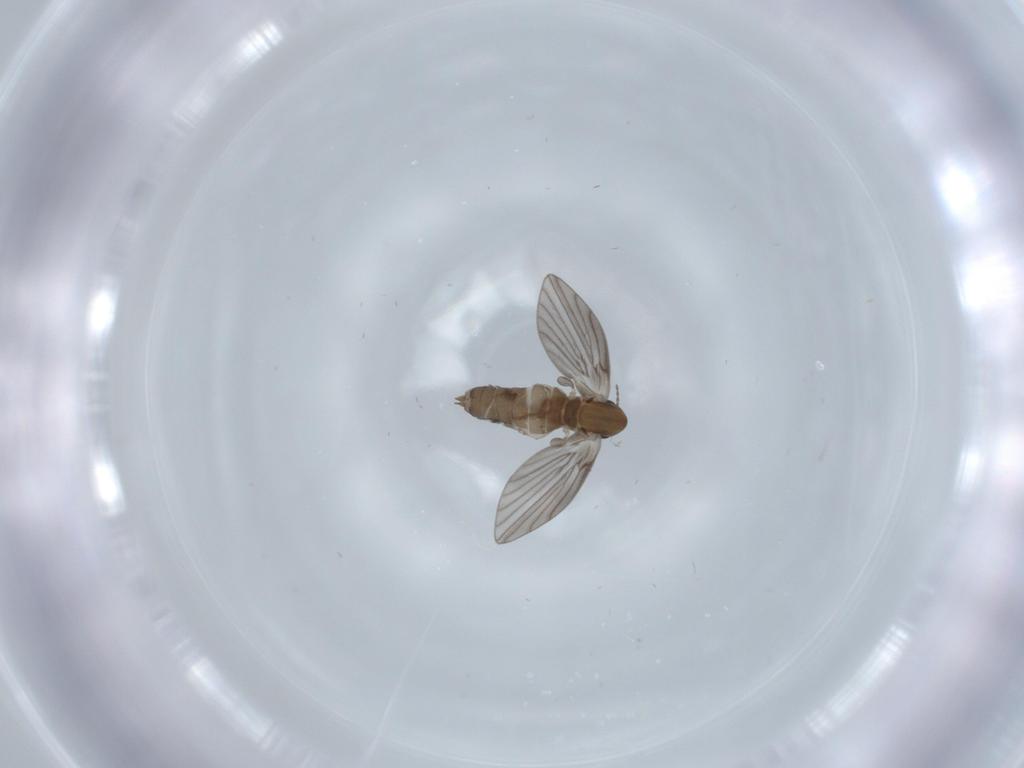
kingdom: Animalia
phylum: Arthropoda
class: Insecta
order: Diptera
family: Psychodidae
